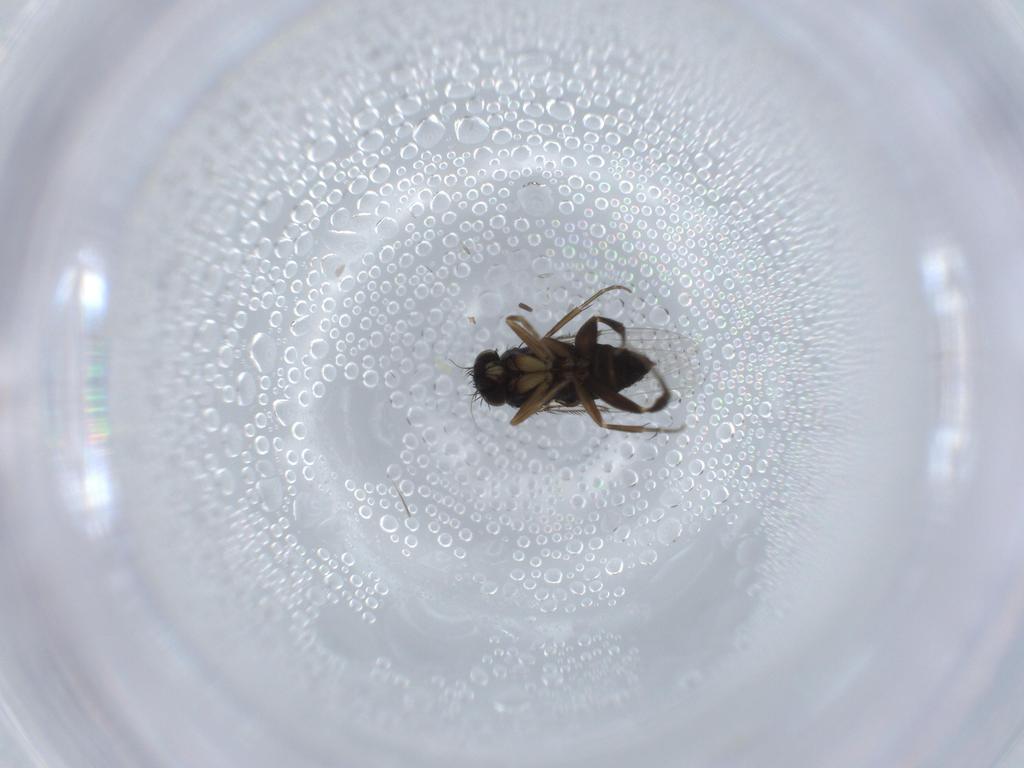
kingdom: Animalia
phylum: Arthropoda
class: Insecta
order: Diptera
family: Phoridae
